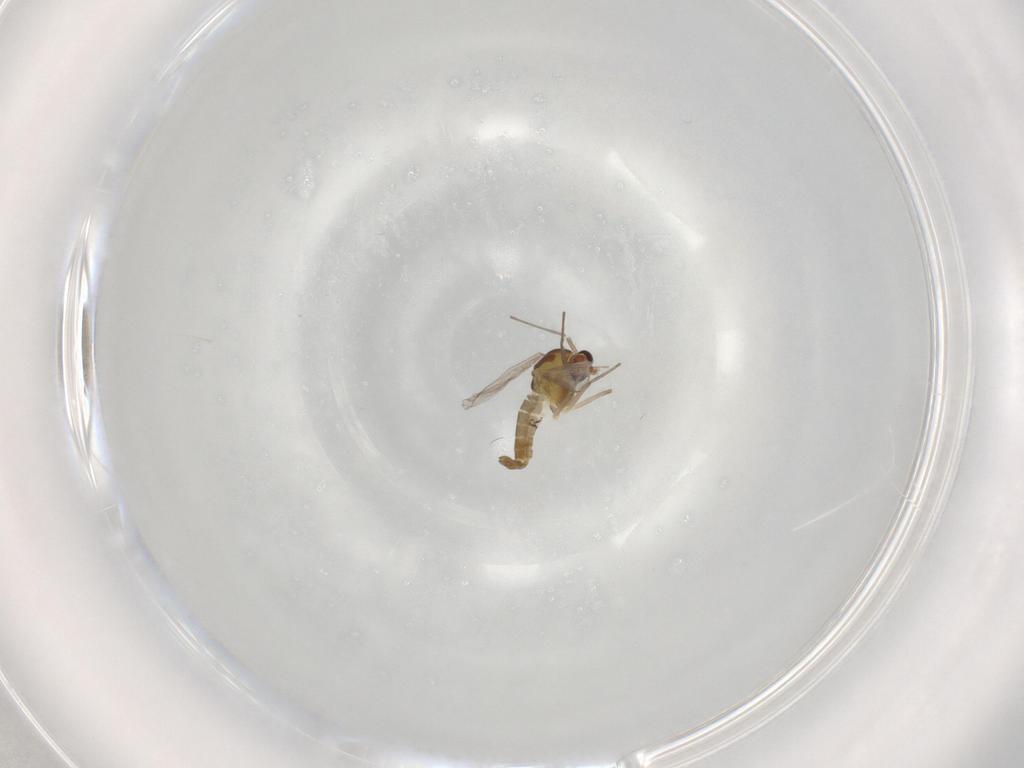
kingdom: Animalia
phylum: Arthropoda
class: Insecta
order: Diptera
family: Chironomidae
